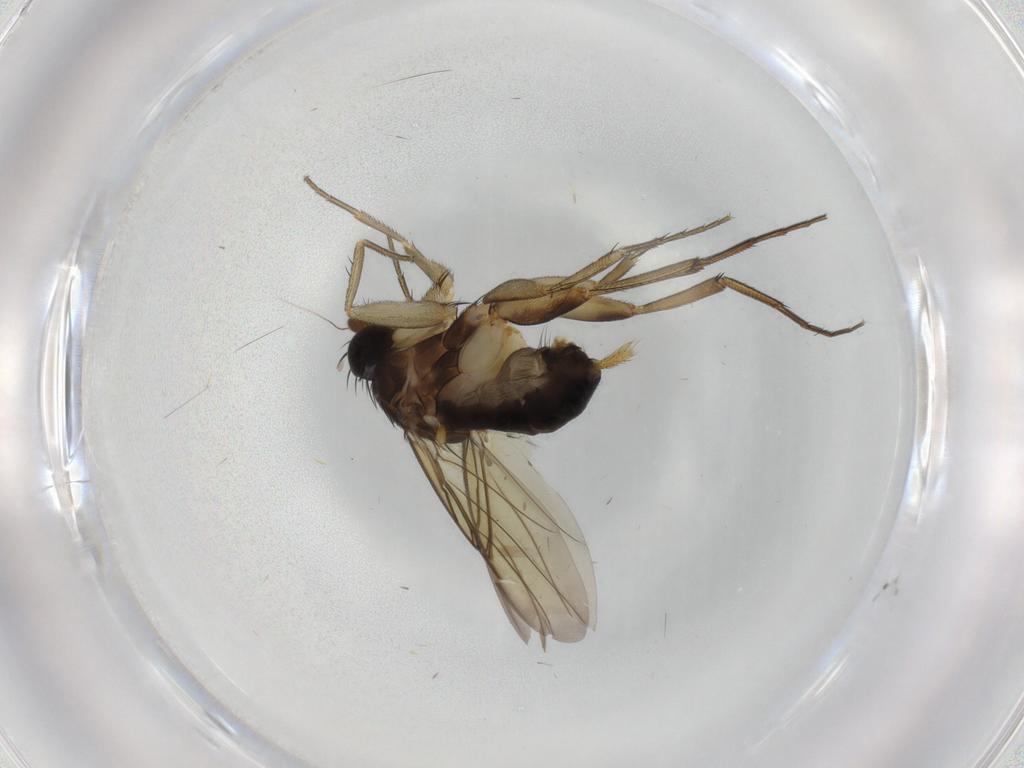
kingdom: Animalia
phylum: Arthropoda
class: Insecta
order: Diptera
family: Phoridae
